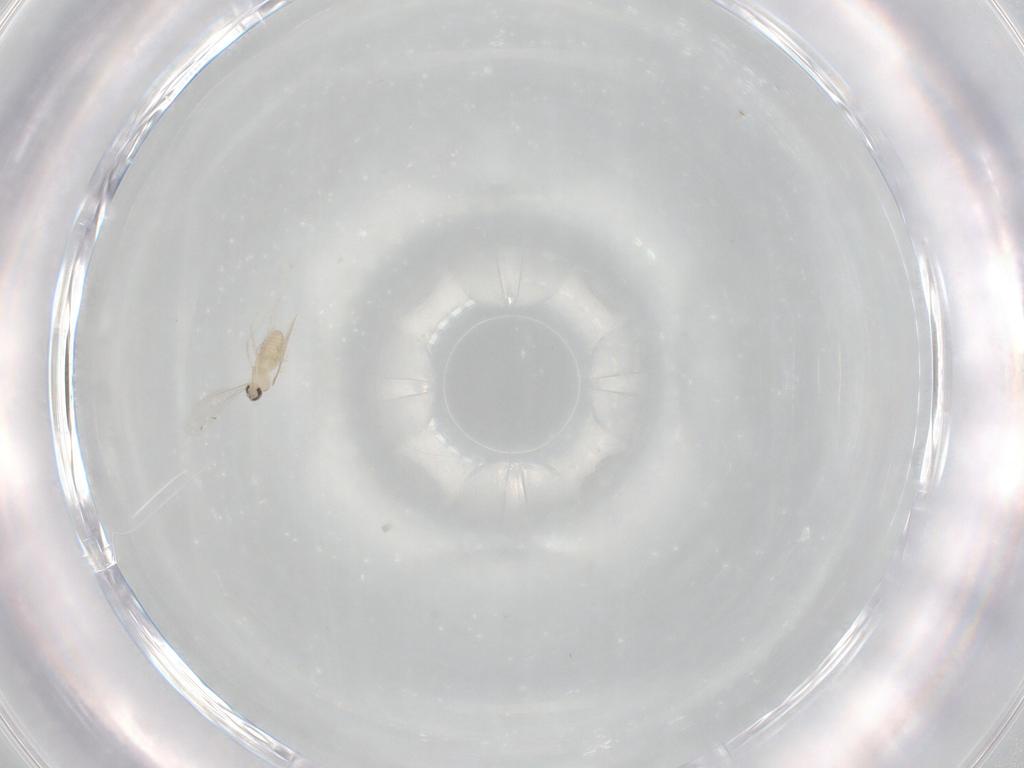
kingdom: Animalia
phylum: Arthropoda
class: Insecta
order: Diptera
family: Cecidomyiidae
